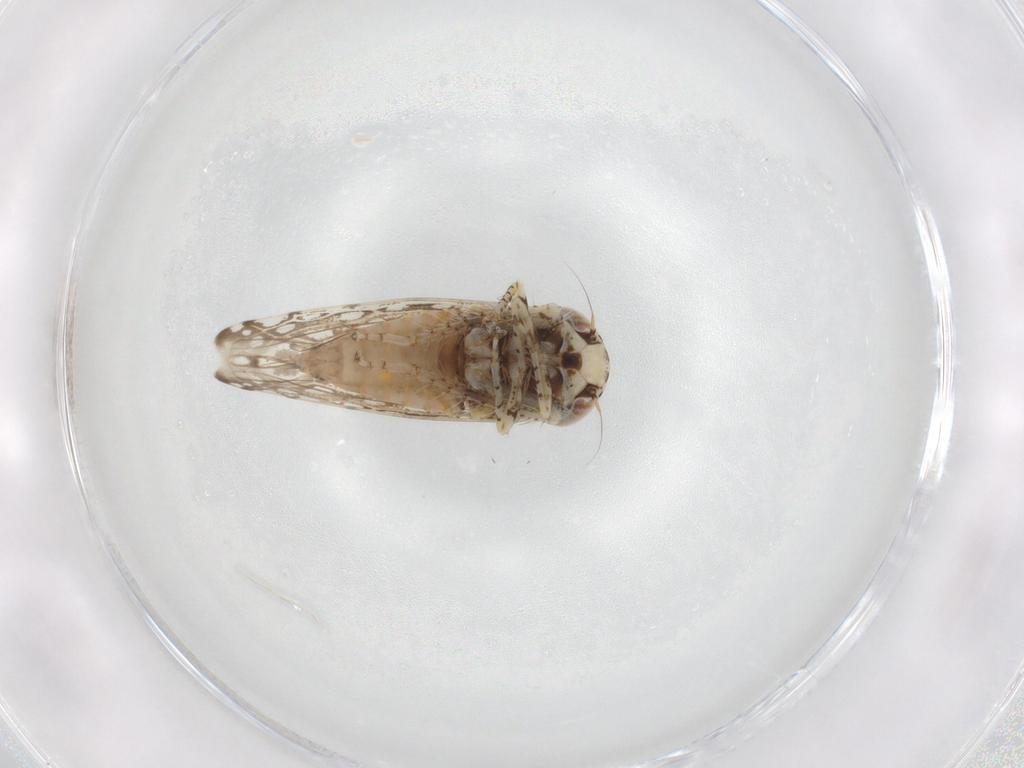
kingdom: Animalia
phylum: Arthropoda
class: Insecta
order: Hemiptera
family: Cicadellidae
